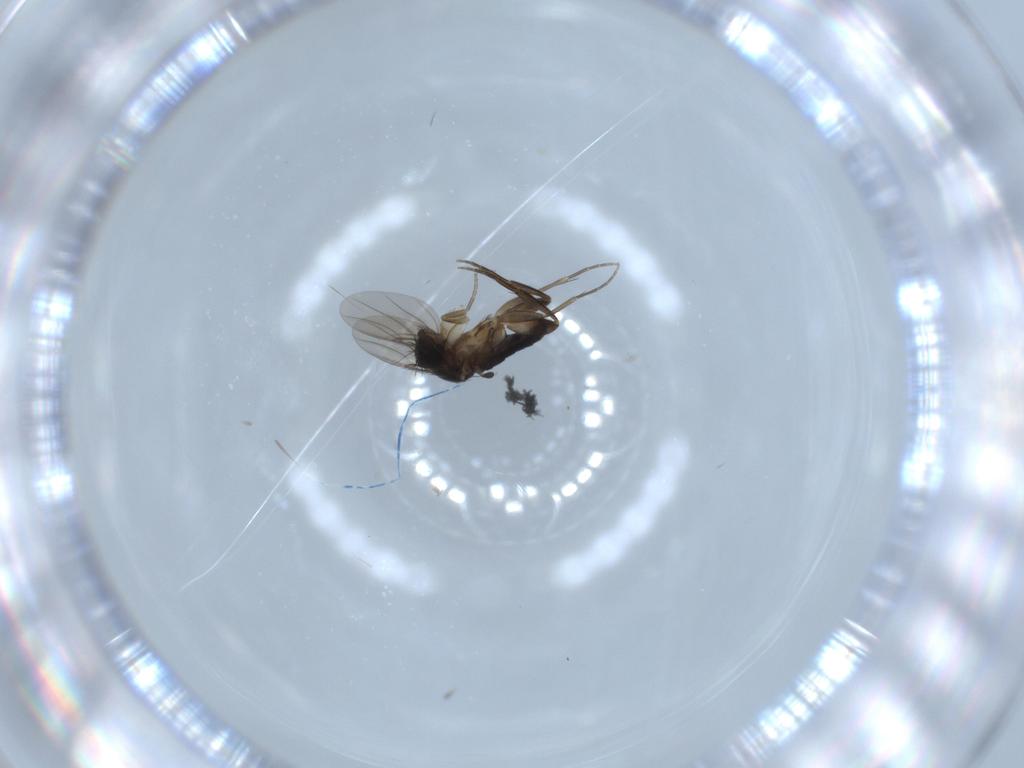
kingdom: Animalia
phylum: Arthropoda
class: Insecta
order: Diptera
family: Phoridae
